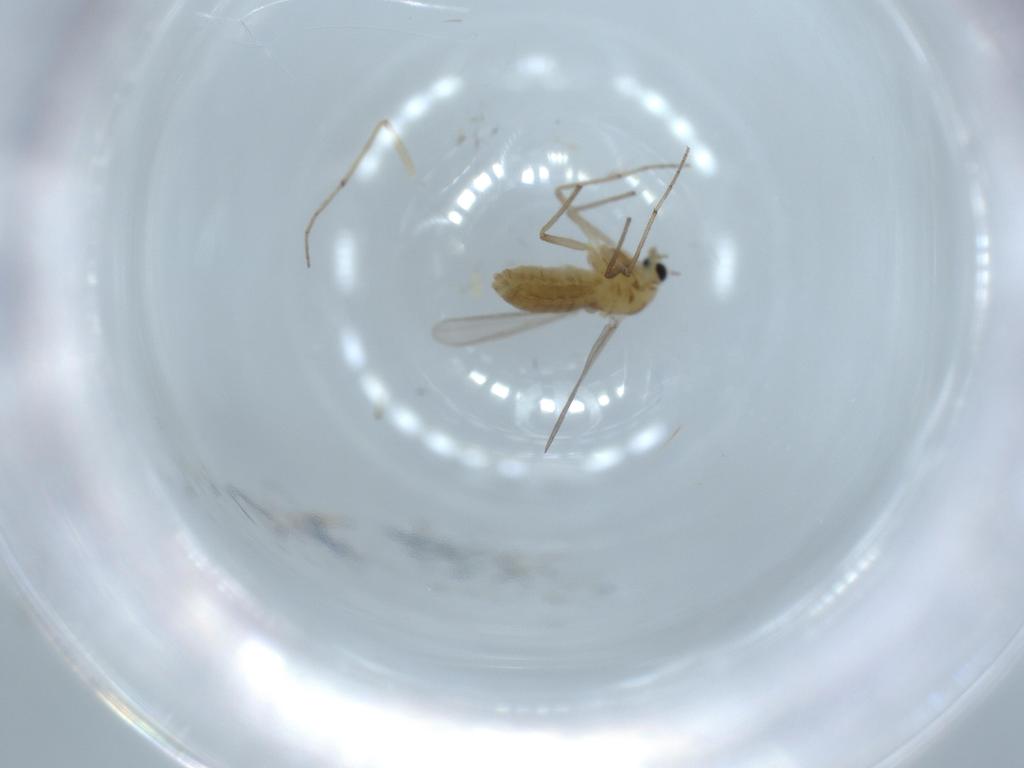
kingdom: Animalia
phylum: Arthropoda
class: Insecta
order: Diptera
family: Chironomidae
